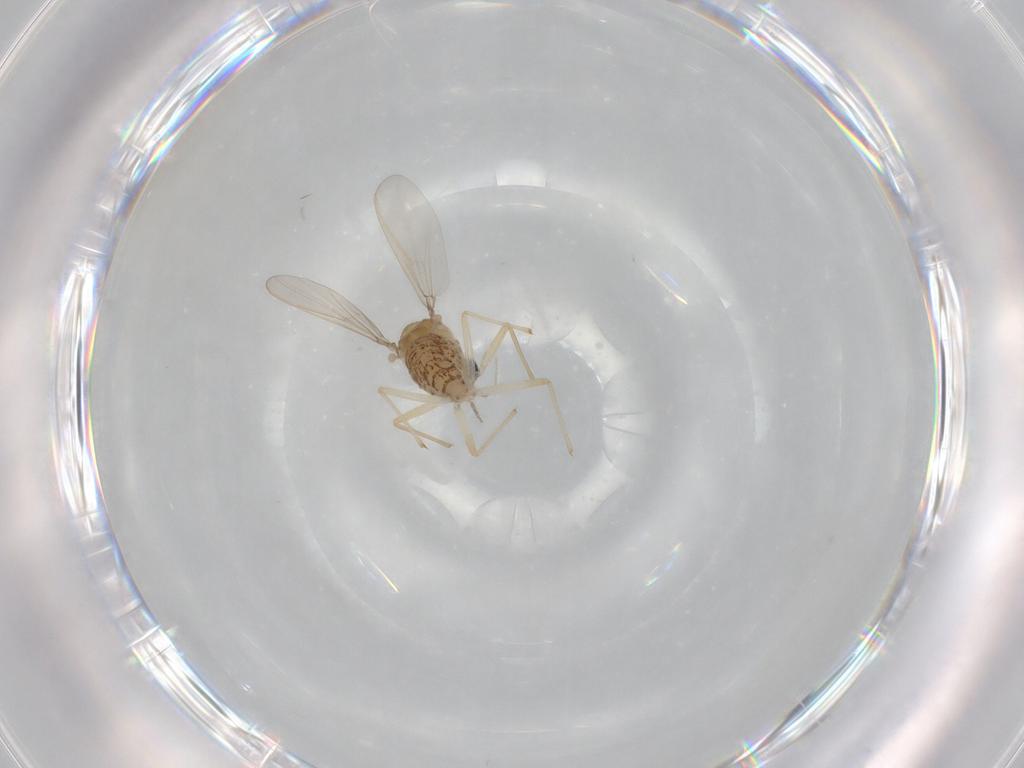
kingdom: Animalia
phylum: Arthropoda
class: Insecta
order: Diptera
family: Chironomidae
